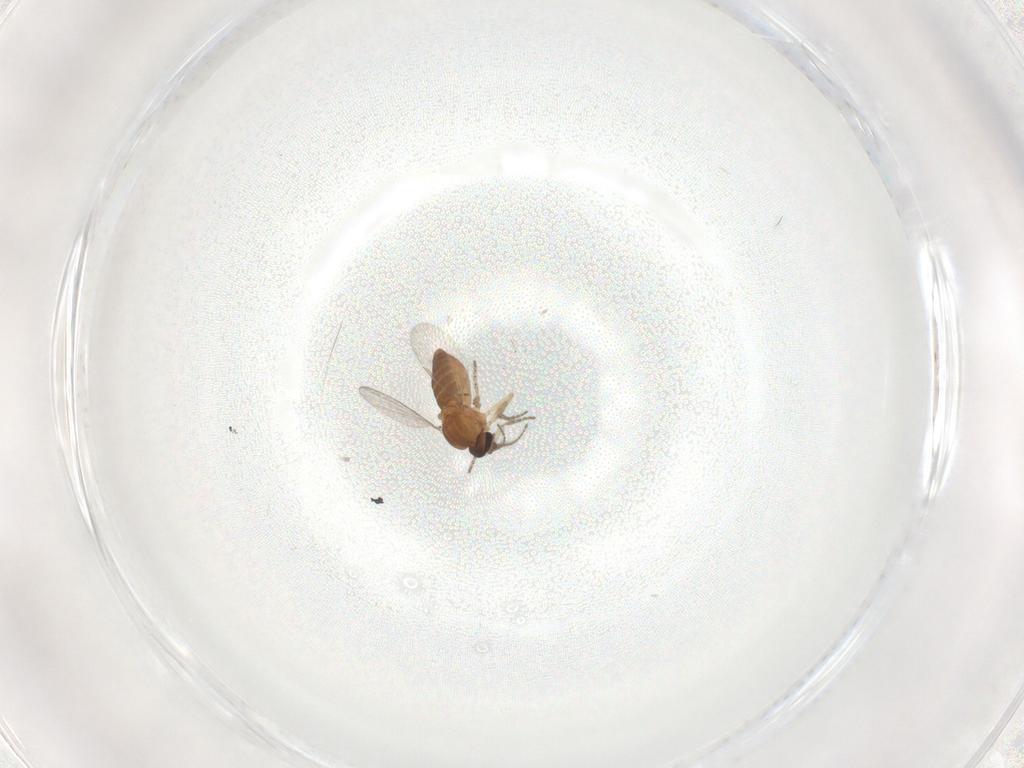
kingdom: Animalia
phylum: Arthropoda
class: Insecta
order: Diptera
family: Ceratopogonidae
